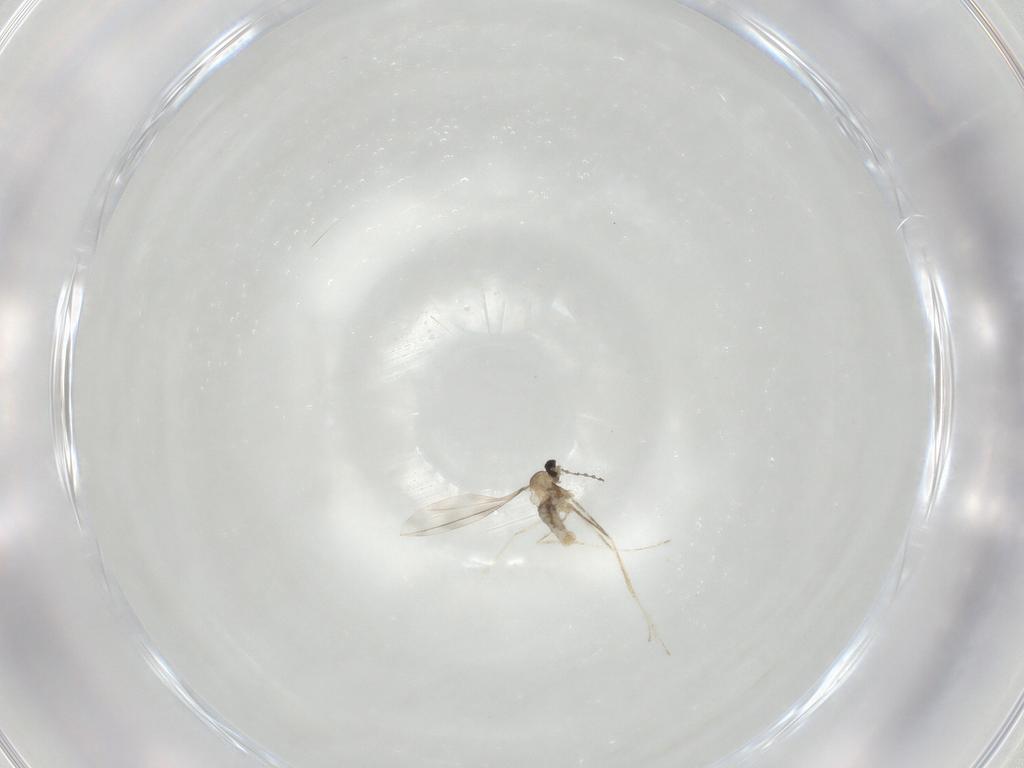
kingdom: Animalia
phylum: Arthropoda
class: Insecta
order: Diptera
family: Cecidomyiidae
